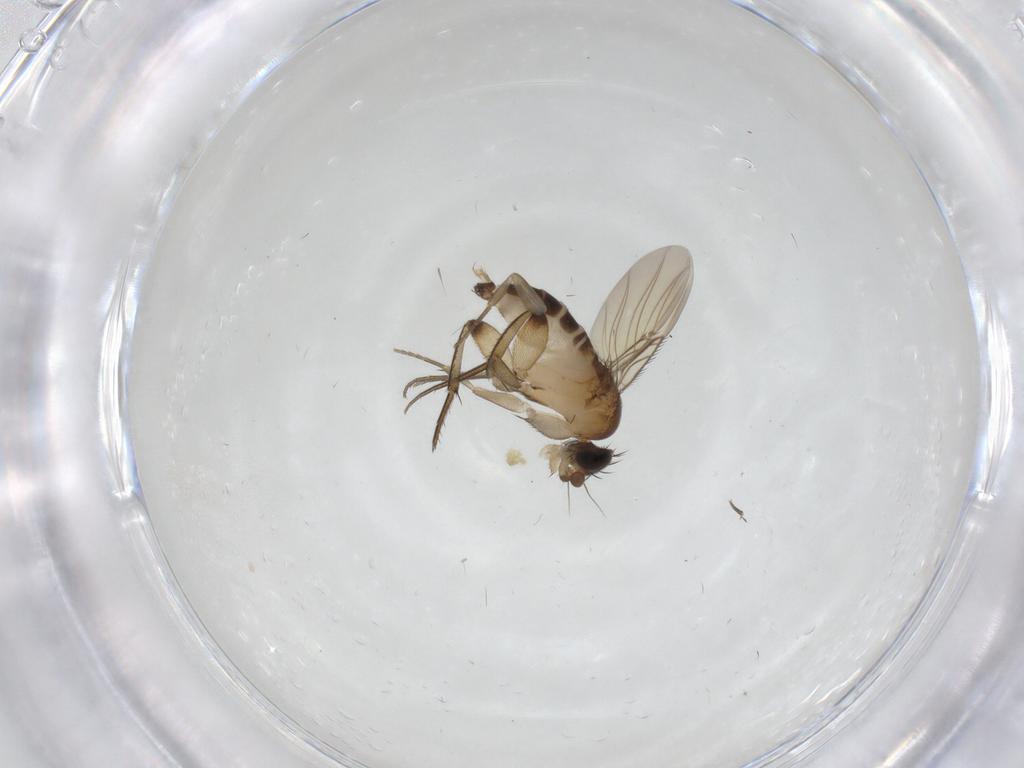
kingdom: Animalia
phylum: Arthropoda
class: Insecta
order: Diptera
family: Phoridae
